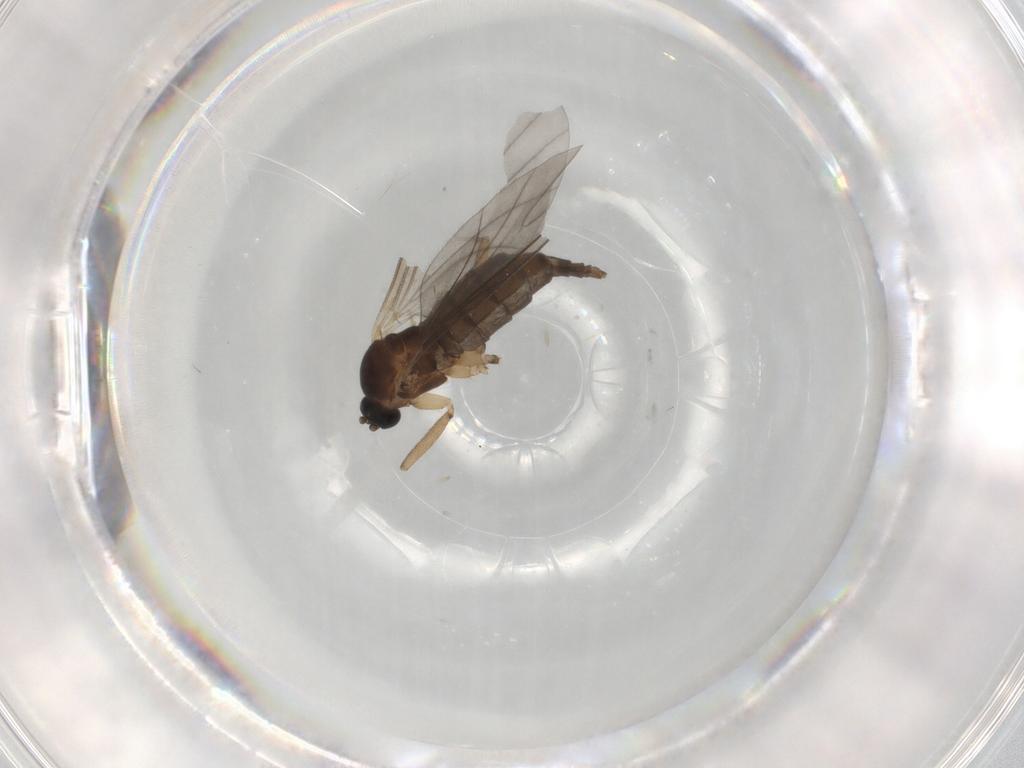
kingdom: Animalia
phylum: Arthropoda
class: Insecta
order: Diptera
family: Sciaridae
